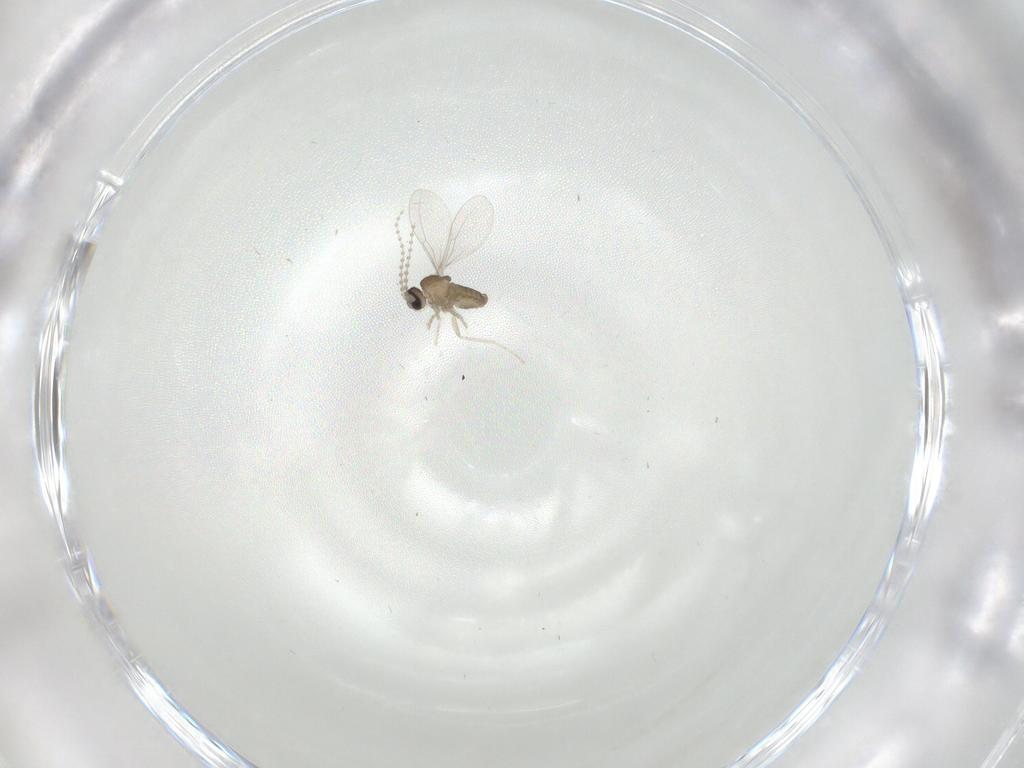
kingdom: Animalia
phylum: Arthropoda
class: Insecta
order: Diptera
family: Cecidomyiidae
